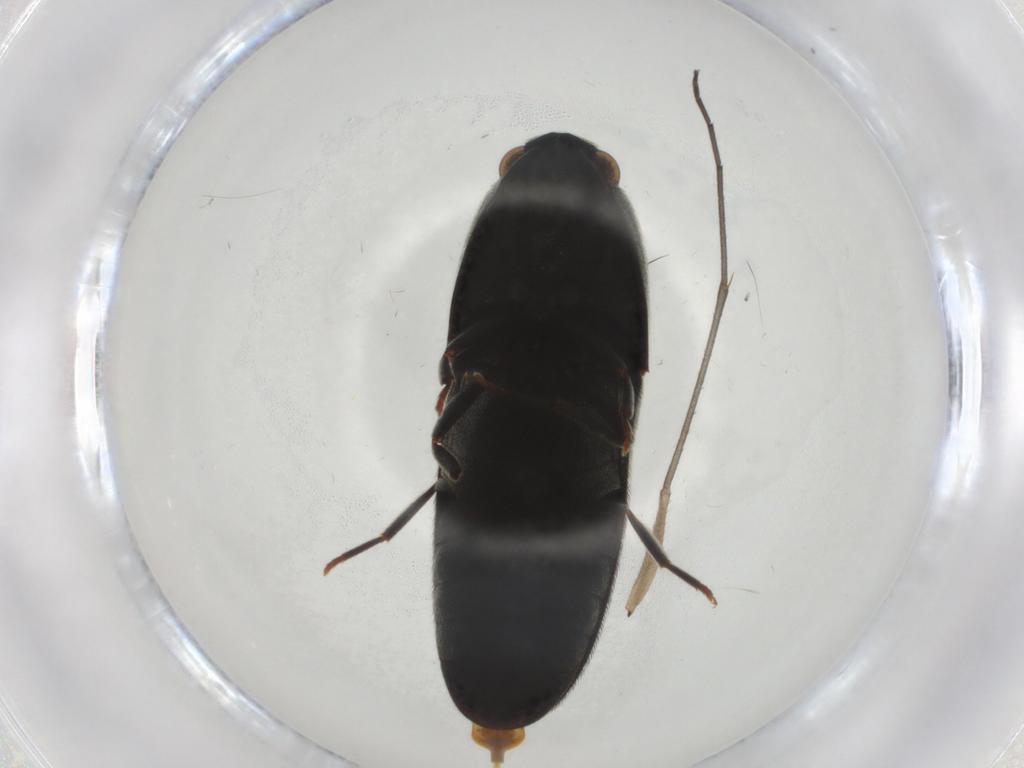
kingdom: Animalia
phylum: Arthropoda
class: Insecta
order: Coleoptera
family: Eucnemidae
